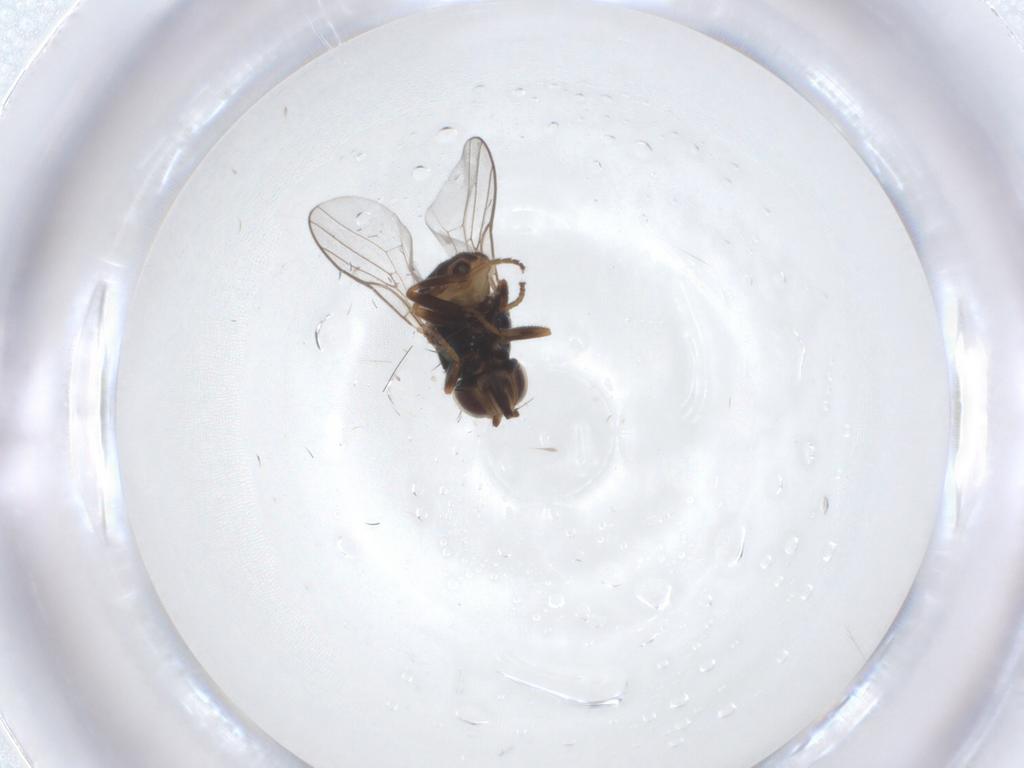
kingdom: Animalia
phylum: Arthropoda
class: Insecta
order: Diptera
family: Chloropidae
